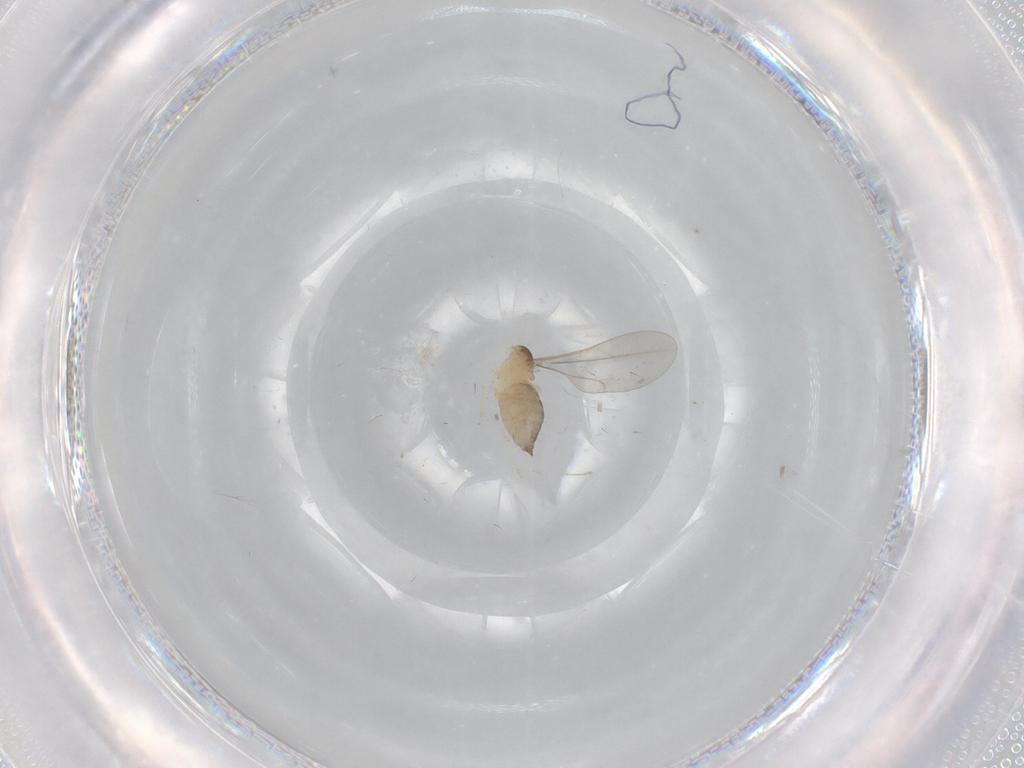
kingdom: Animalia
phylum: Arthropoda
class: Insecta
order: Diptera
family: Cecidomyiidae
